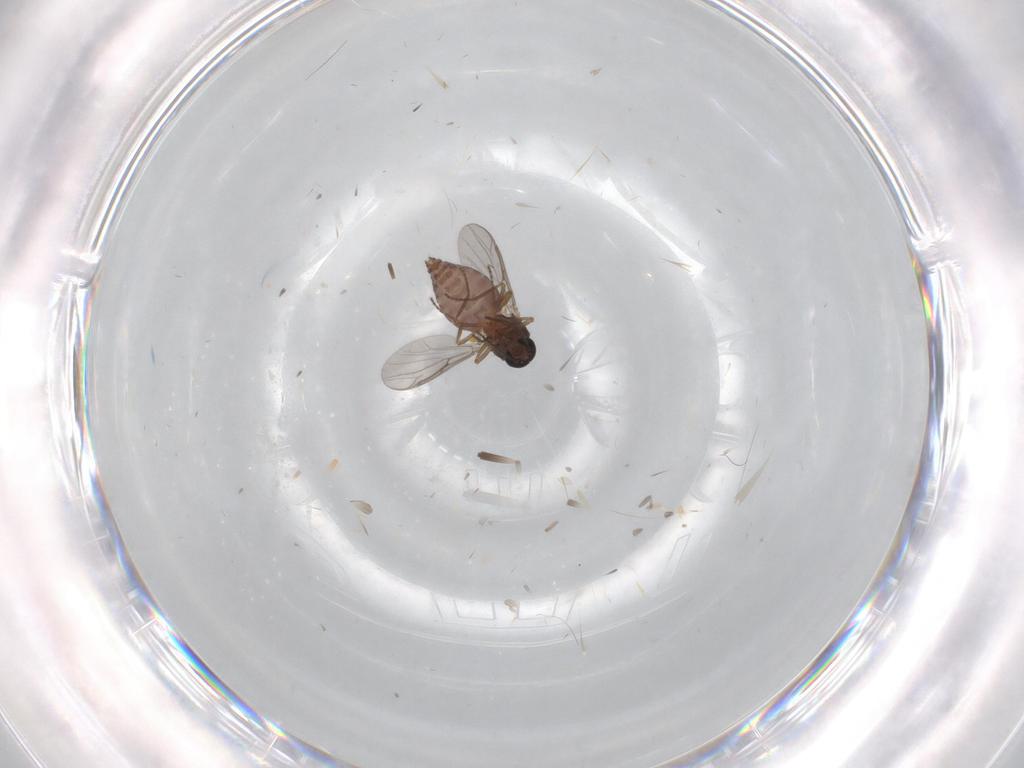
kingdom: Animalia
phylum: Arthropoda
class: Insecta
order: Diptera
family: Ceratopogonidae
